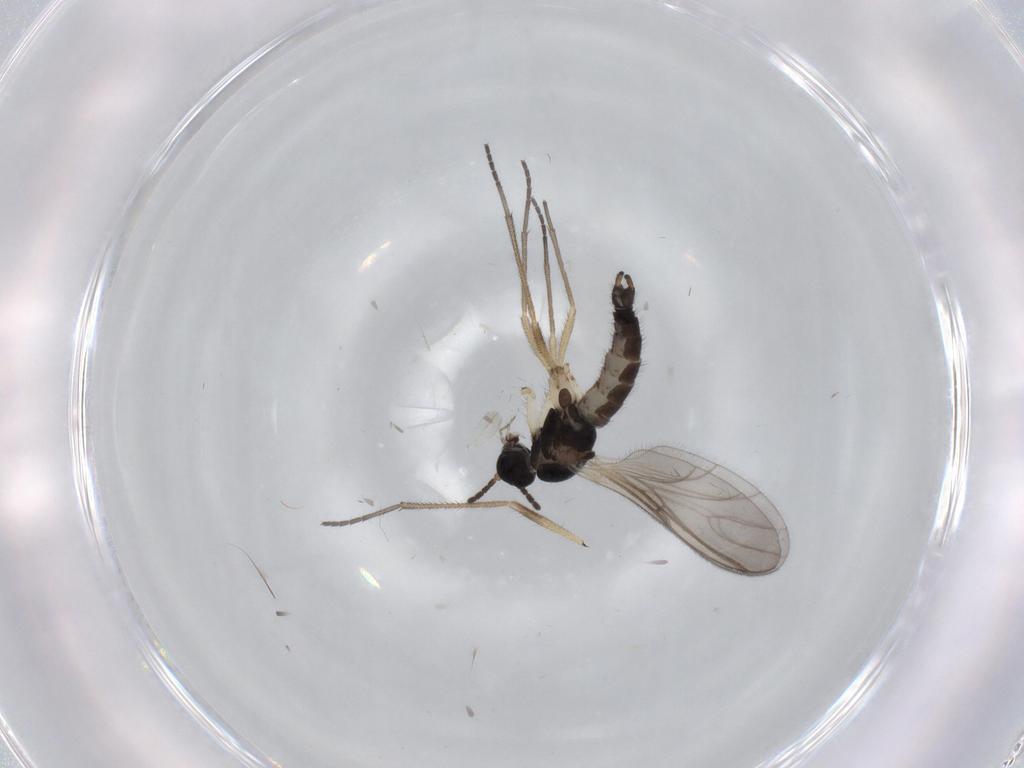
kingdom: Animalia
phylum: Arthropoda
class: Insecta
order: Diptera
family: Sciaridae
